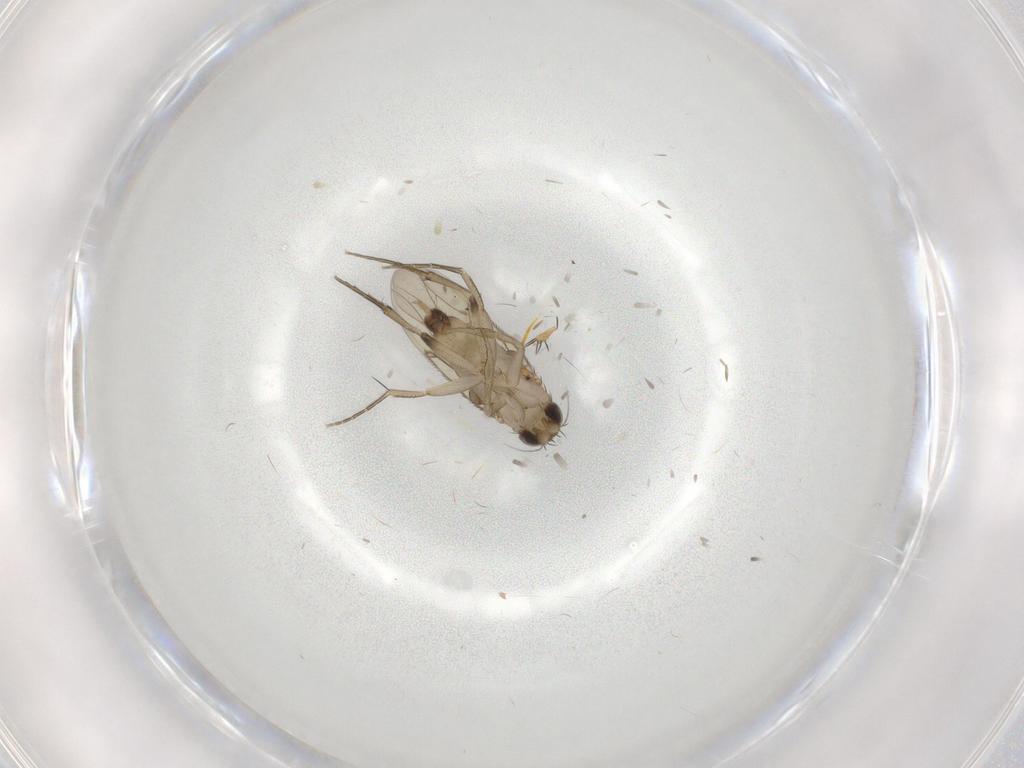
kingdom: Animalia
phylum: Arthropoda
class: Insecta
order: Diptera
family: Phoridae
